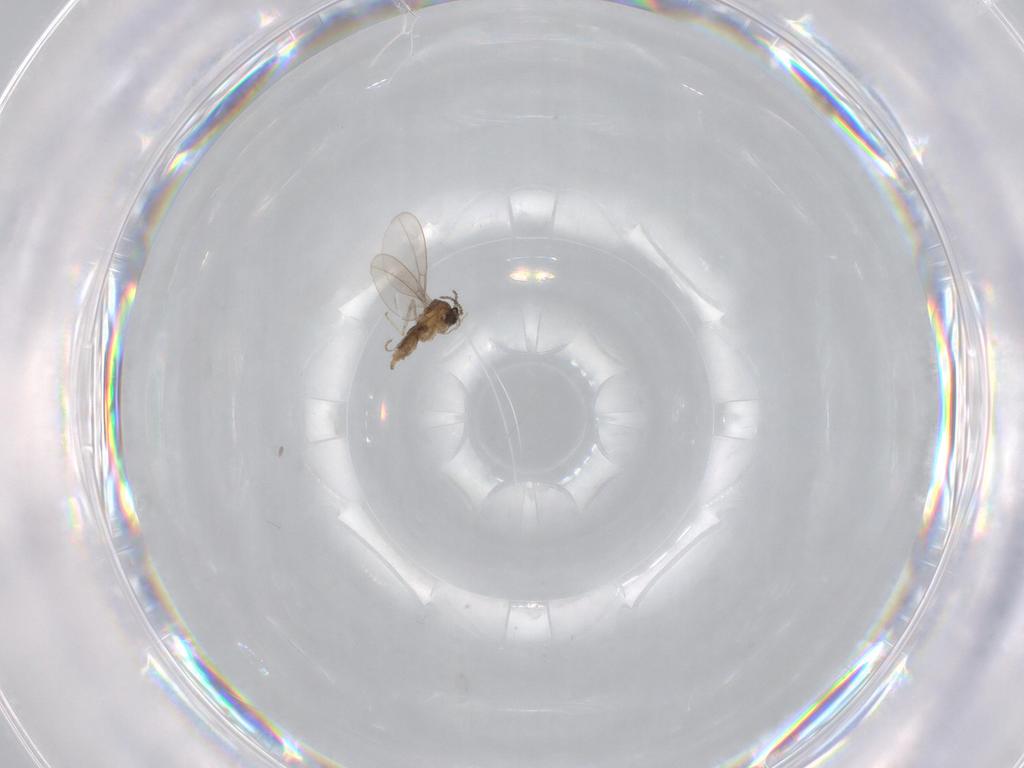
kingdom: Animalia
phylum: Arthropoda
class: Insecta
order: Diptera
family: Cecidomyiidae
